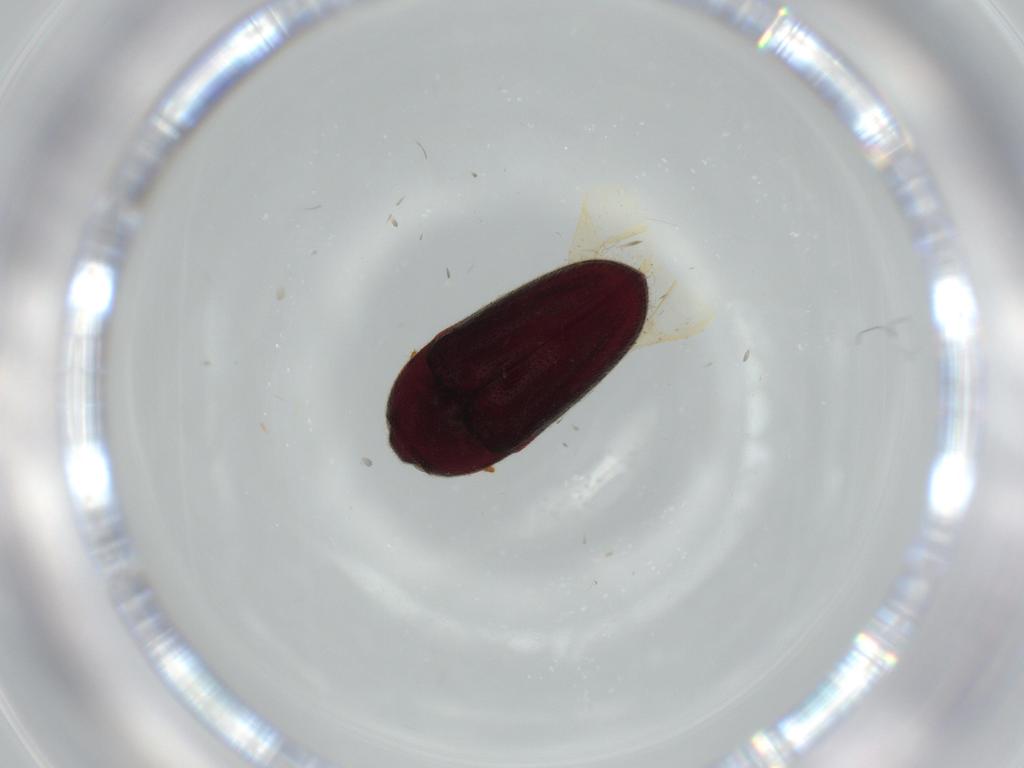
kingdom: Animalia
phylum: Arthropoda
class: Insecta
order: Coleoptera
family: Throscidae
